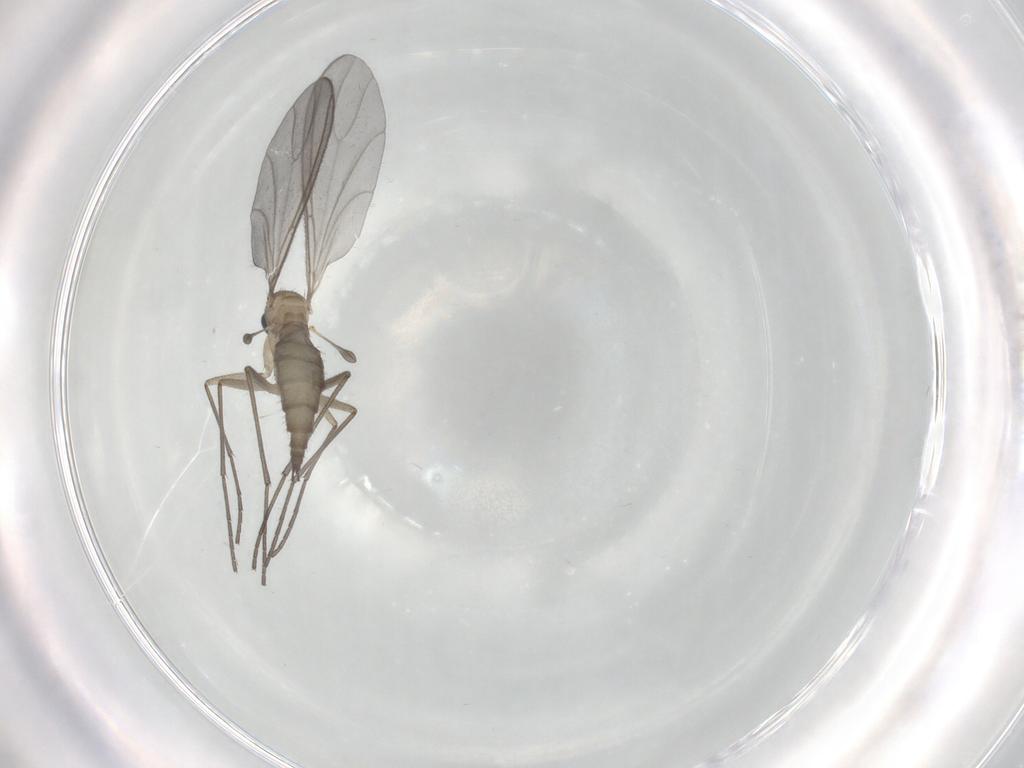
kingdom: Animalia
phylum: Arthropoda
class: Insecta
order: Diptera
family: Sciaridae
